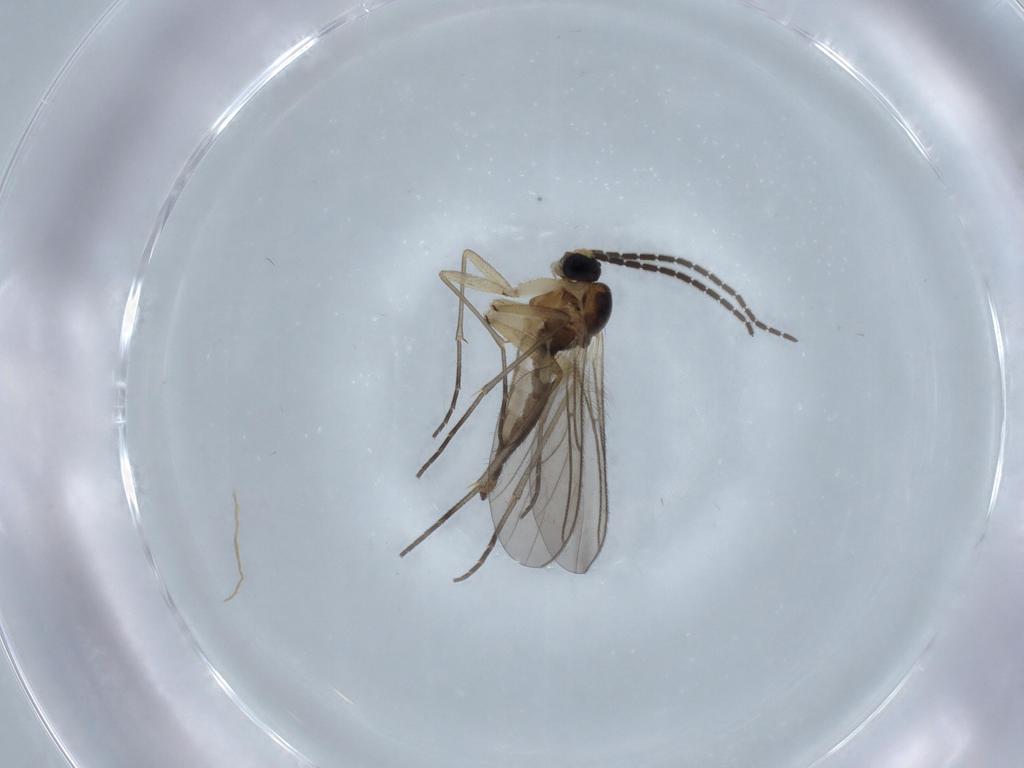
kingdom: Animalia
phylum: Arthropoda
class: Insecta
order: Diptera
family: Sciaridae
